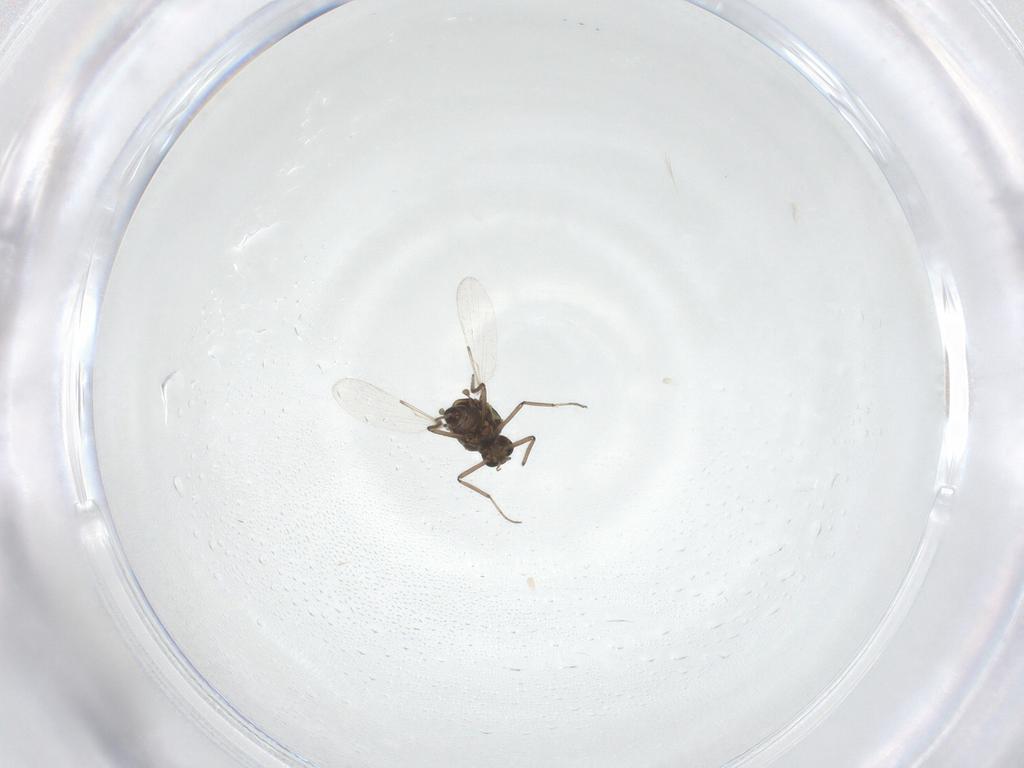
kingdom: Animalia
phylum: Arthropoda
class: Insecta
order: Diptera
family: Ceratopogonidae
